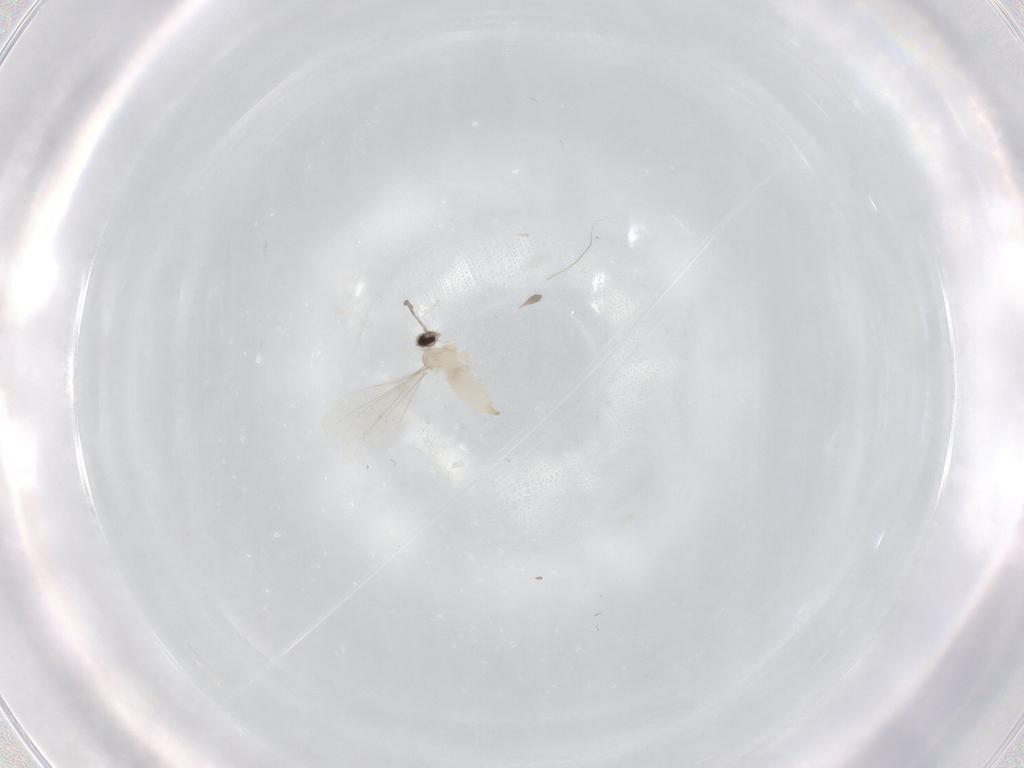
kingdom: Animalia
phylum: Arthropoda
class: Insecta
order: Diptera
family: Cecidomyiidae
